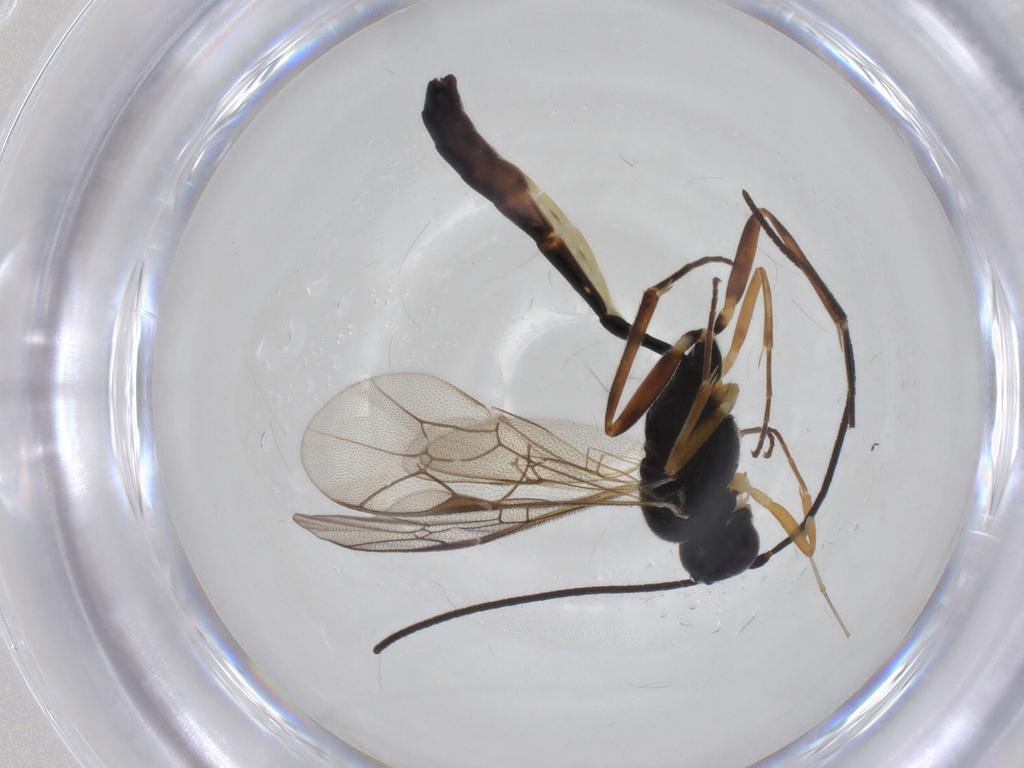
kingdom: Animalia
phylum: Arthropoda
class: Insecta
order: Hymenoptera
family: Ichneumonidae
